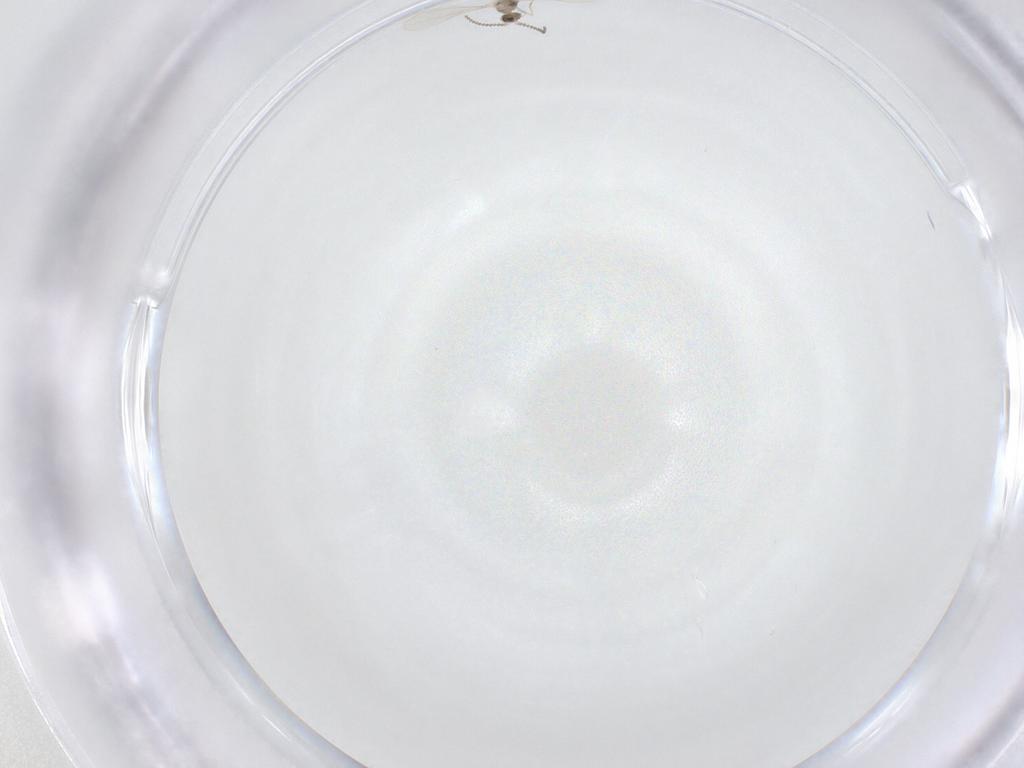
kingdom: Animalia
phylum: Arthropoda
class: Insecta
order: Diptera
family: Cecidomyiidae
